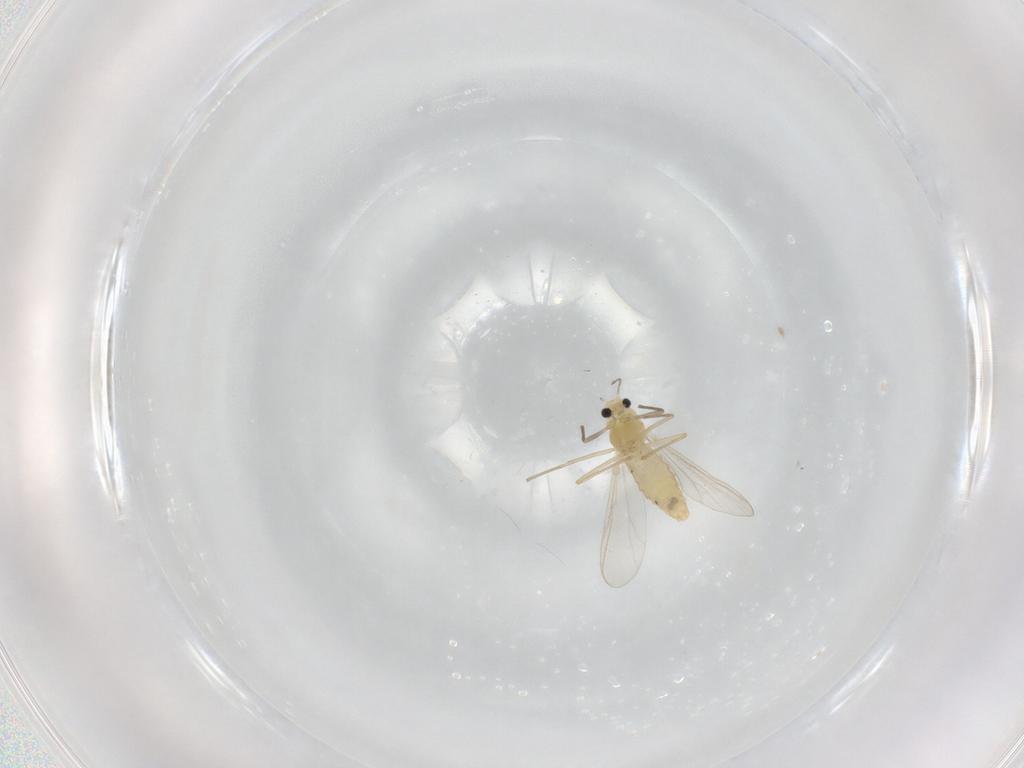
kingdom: Animalia
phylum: Arthropoda
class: Insecta
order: Diptera
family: Chironomidae
